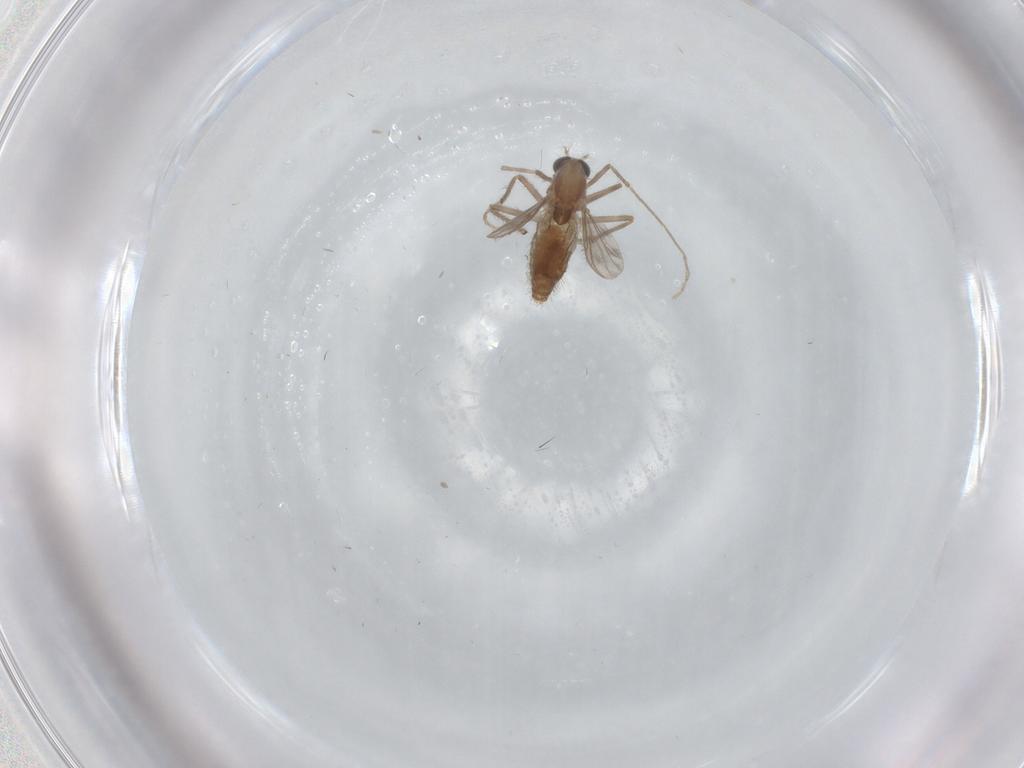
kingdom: Animalia
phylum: Arthropoda
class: Insecta
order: Diptera
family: Chironomidae
